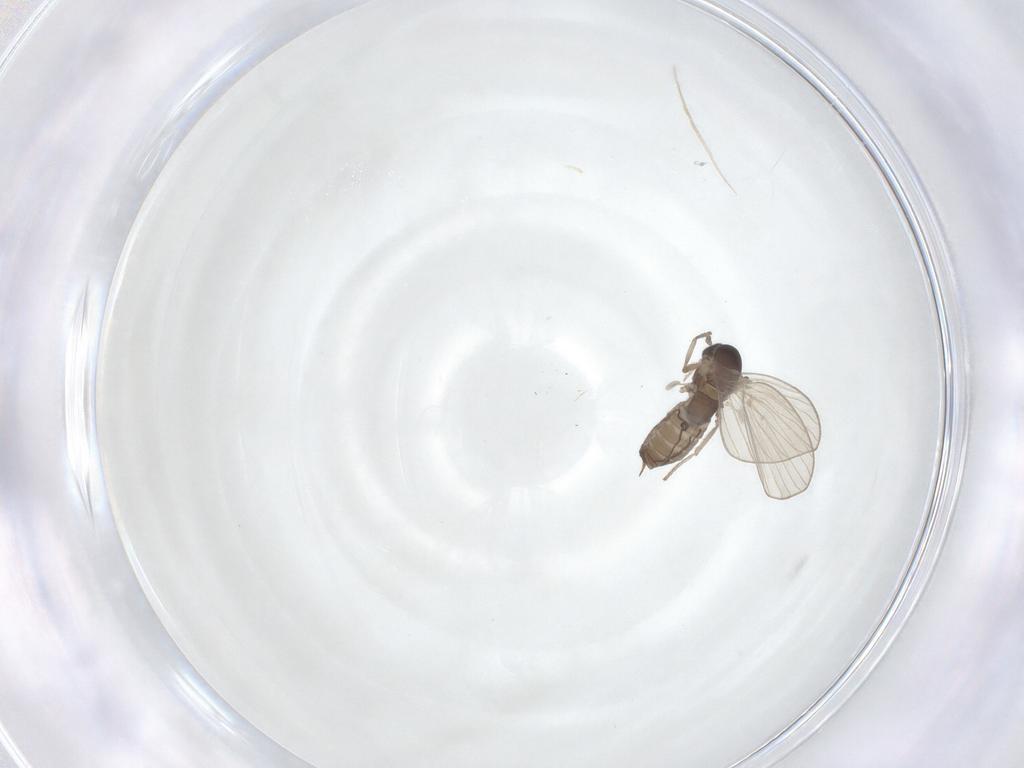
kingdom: Animalia
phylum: Arthropoda
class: Insecta
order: Diptera
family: Psychodidae
